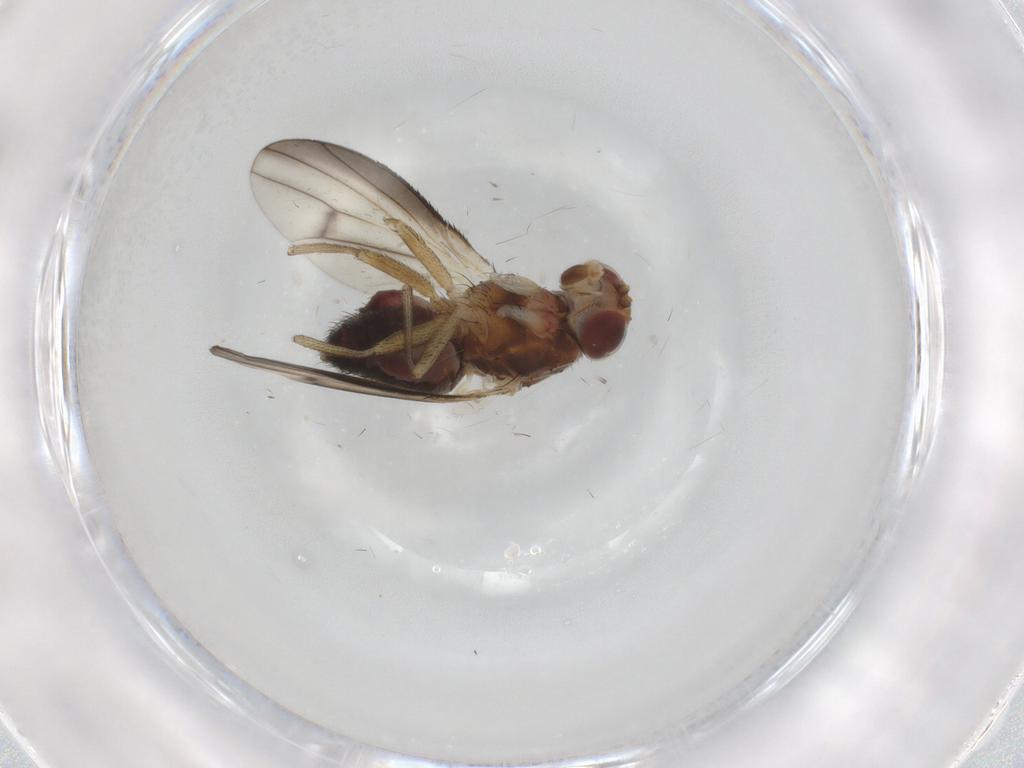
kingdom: Animalia
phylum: Arthropoda
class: Insecta
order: Diptera
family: Heleomyzidae
